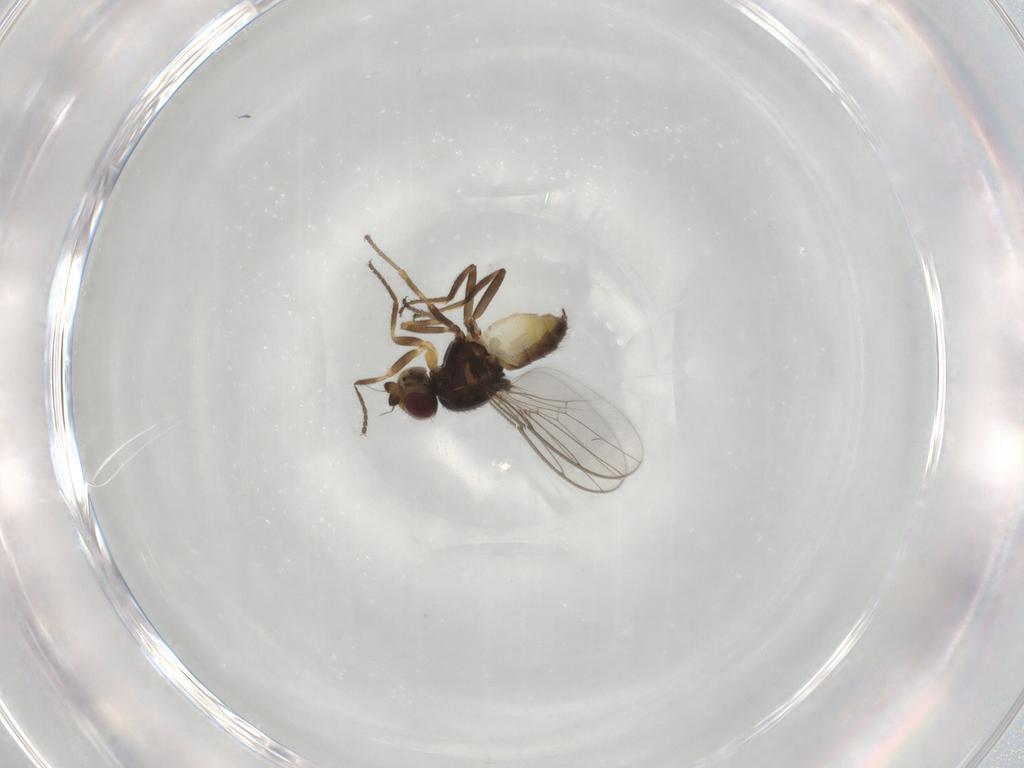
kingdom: Animalia
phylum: Arthropoda
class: Insecta
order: Diptera
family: Chloropidae
